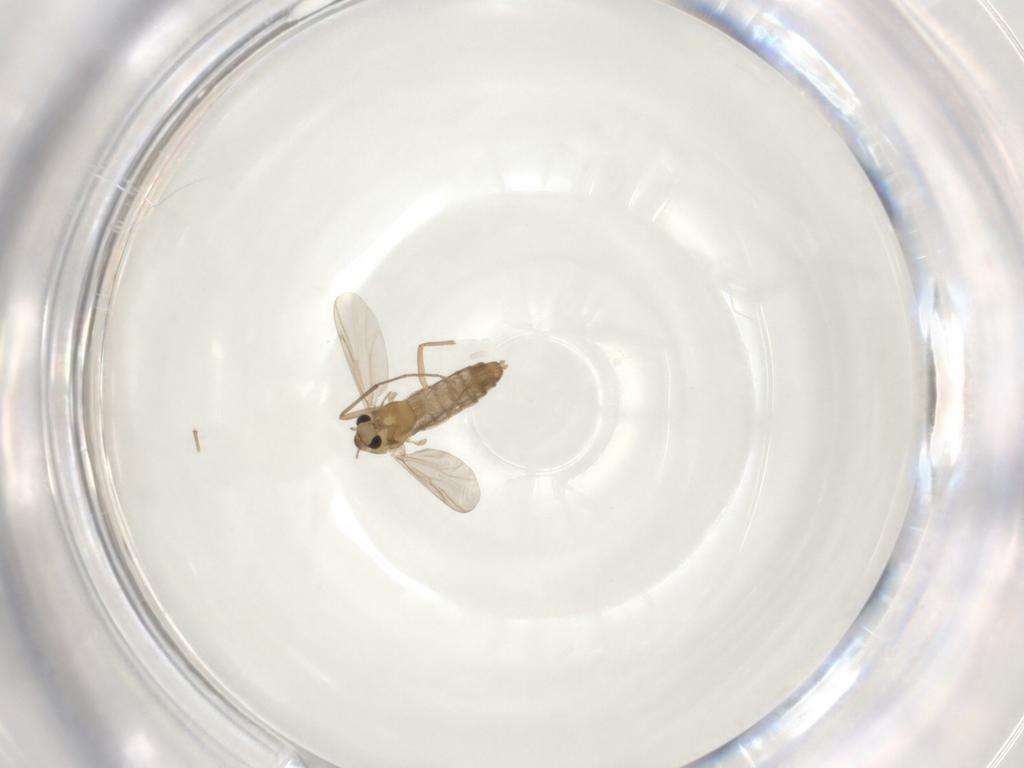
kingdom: Animalia
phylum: Arthropoda
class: Insecta
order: Diptera
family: Chironomidae
